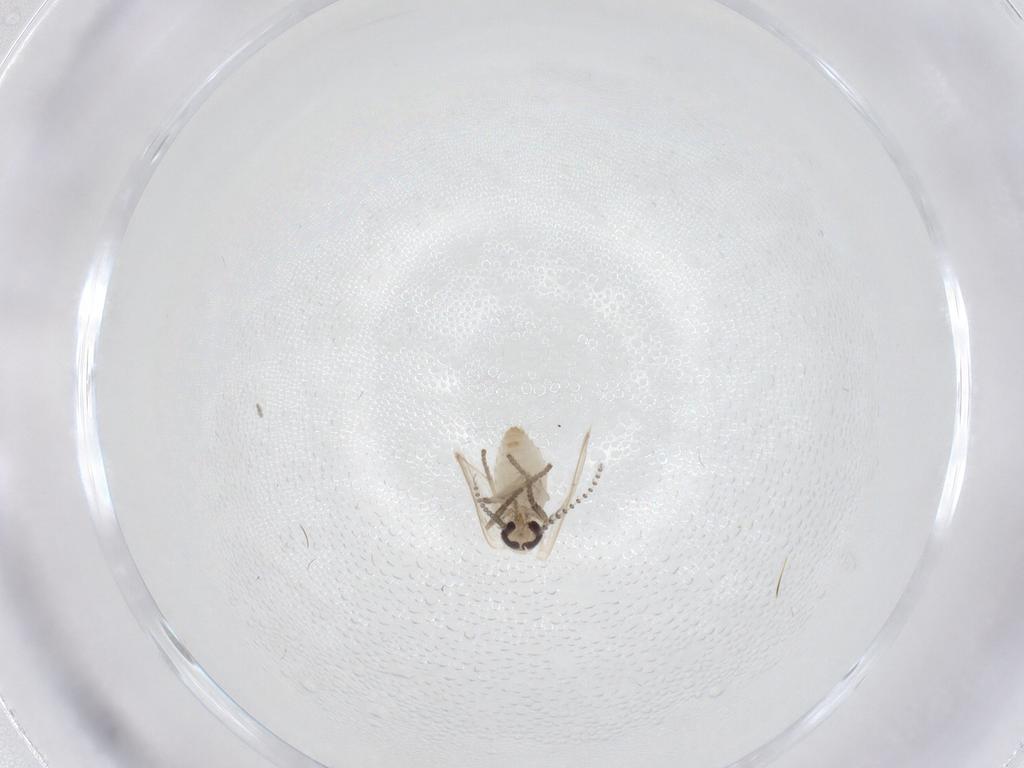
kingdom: Animalia
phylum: Arthropoda
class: Insecta
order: Diptera
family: Psychodidae
